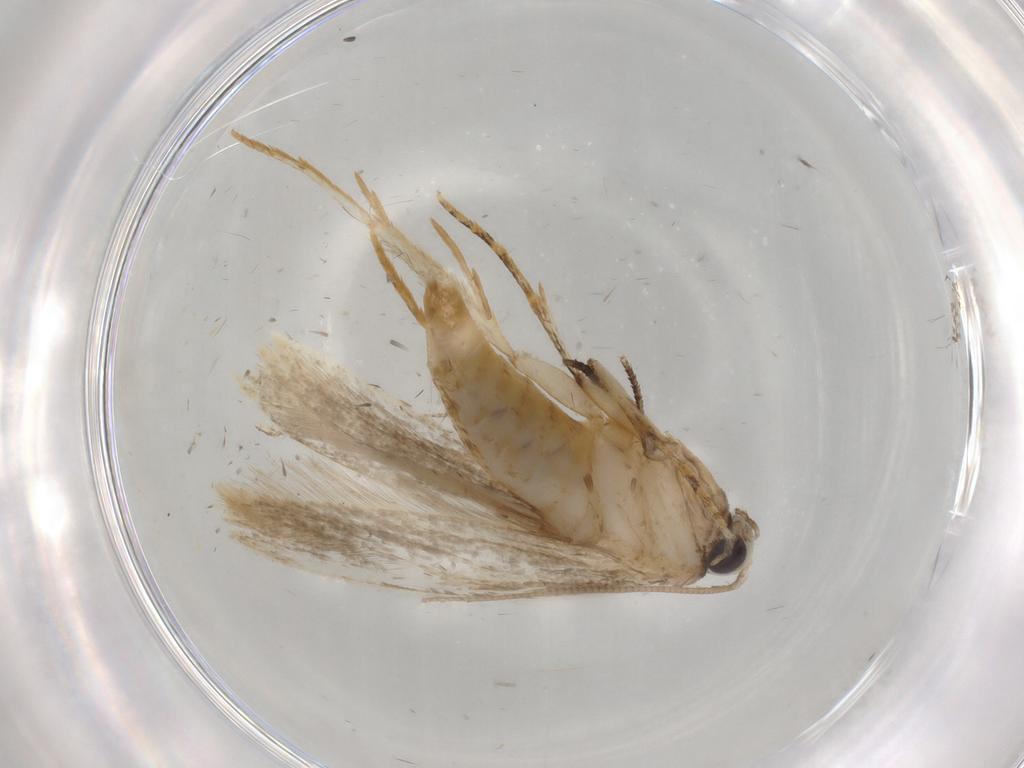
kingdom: Animalia
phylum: Arthropoda
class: Insecta
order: Lepidoptera
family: Tineidae
